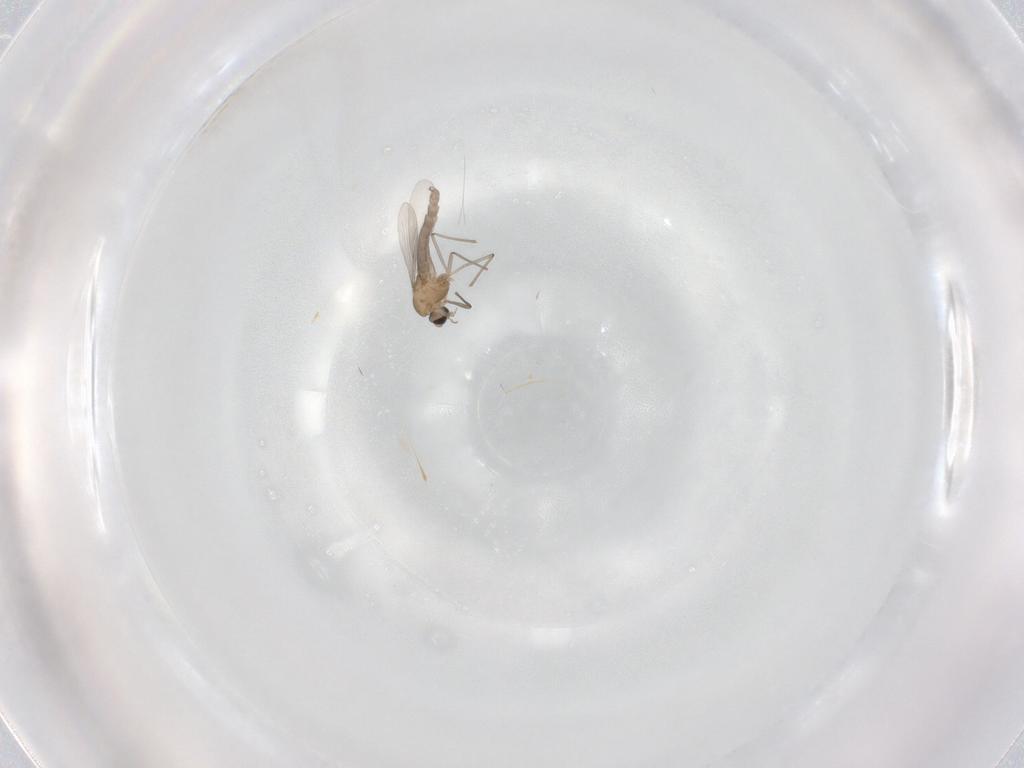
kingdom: Animalia
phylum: Arthropoda
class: Insecta
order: Diptera
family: Chironomidae
